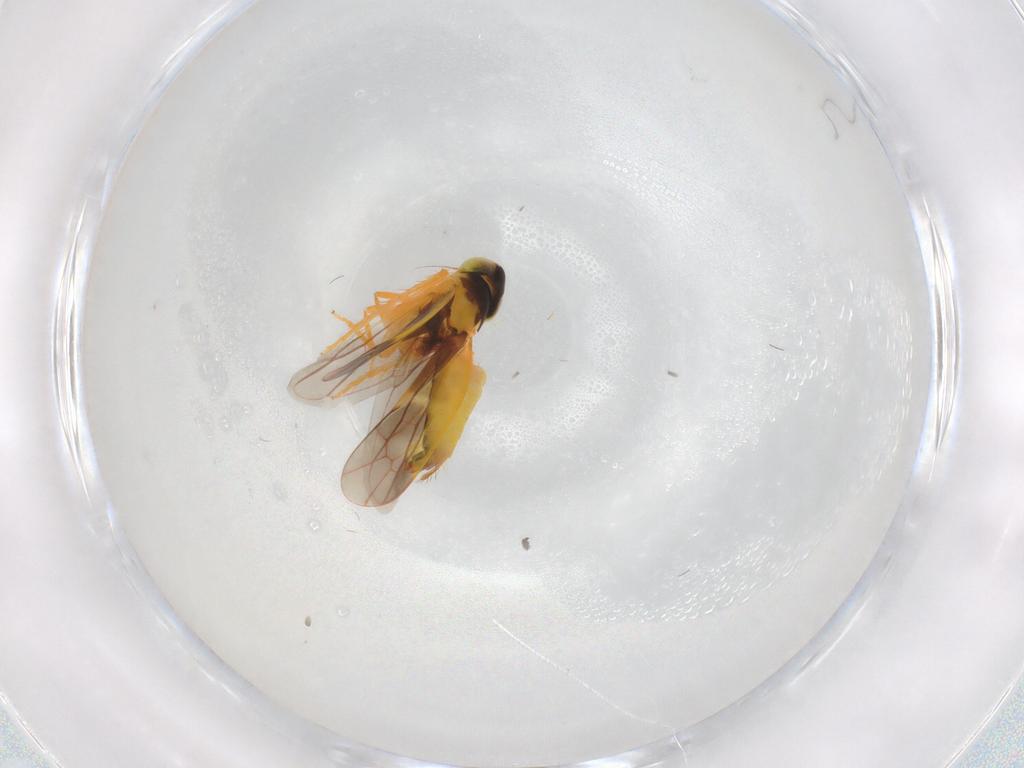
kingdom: Animalia
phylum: Arthropoda
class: Insecta
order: Hemiptera
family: Cicadellidae
